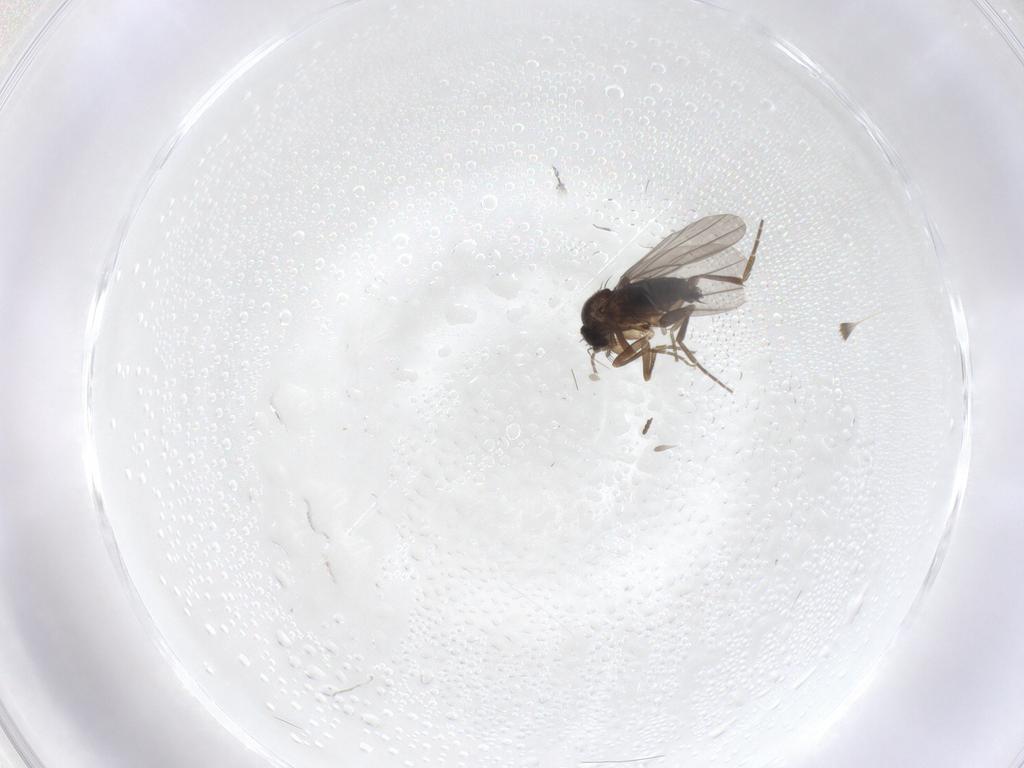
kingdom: Animalia
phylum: Arthropoda
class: Insecta
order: Diptera
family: Phoridae
